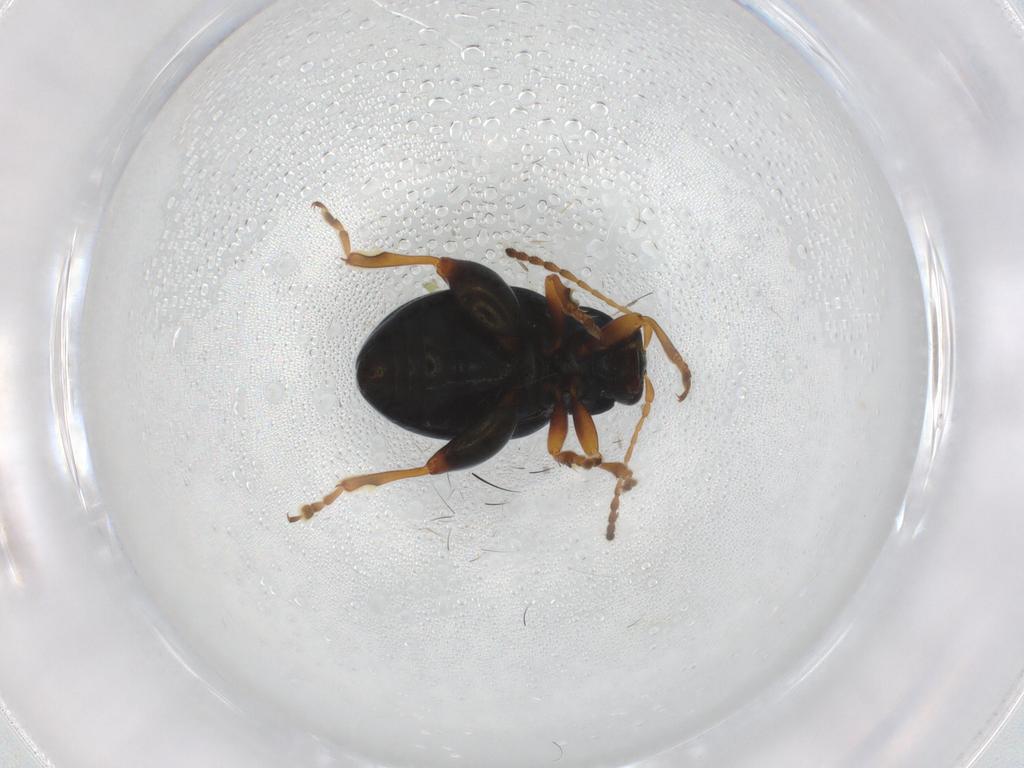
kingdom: Animalia
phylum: Arthropoda
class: Insecta
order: Coleoptera
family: Chrysomelidae
